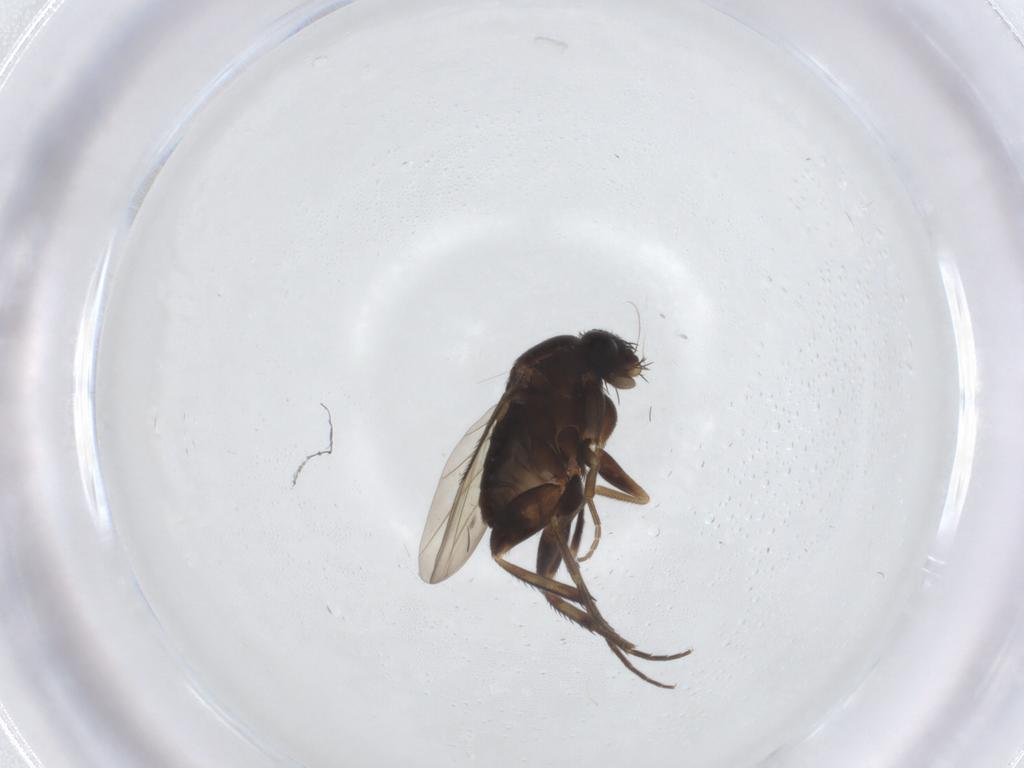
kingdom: Animalia
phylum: Arthropoda
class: Insecta
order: Diptera
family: Phoridae
